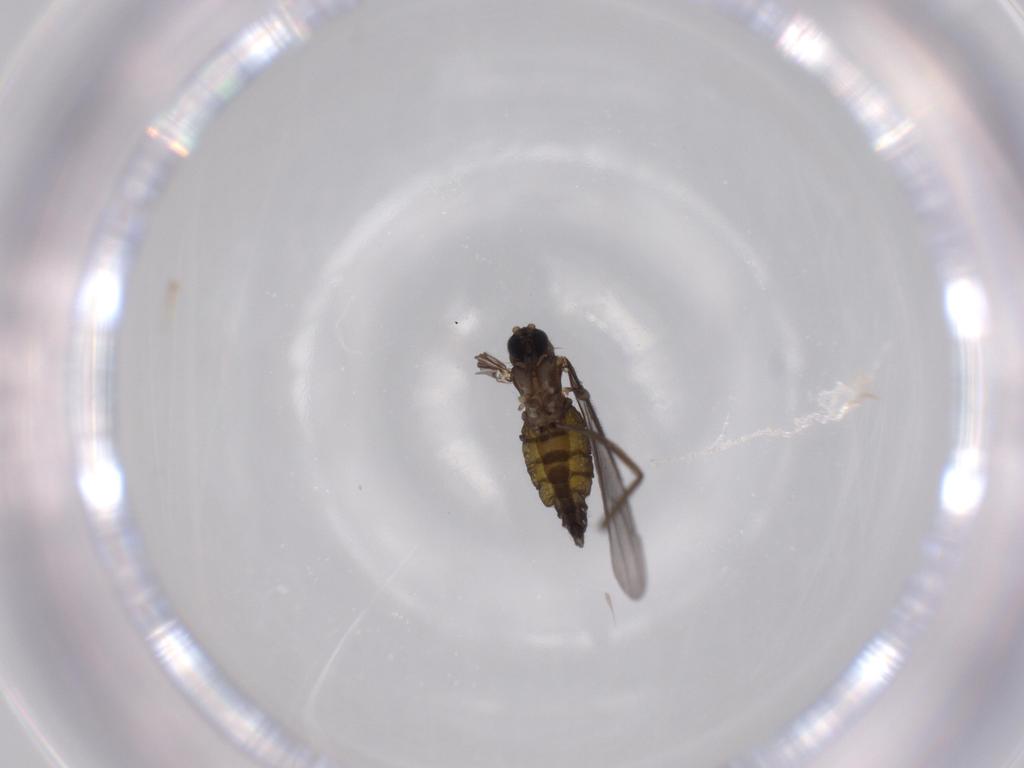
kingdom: Animalia
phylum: Arthropoda
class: Insecta
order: Diptera
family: Sciaridae
